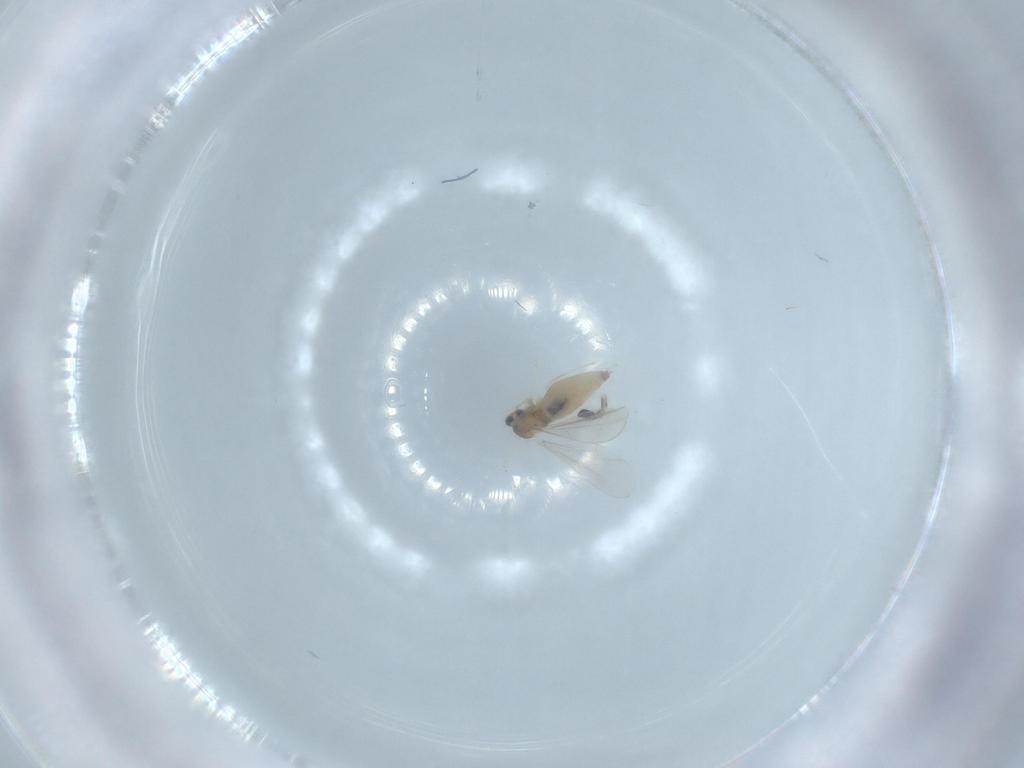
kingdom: Animalia
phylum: Arthropoda
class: Insecta
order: Diptera
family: Cecidomyiidae
